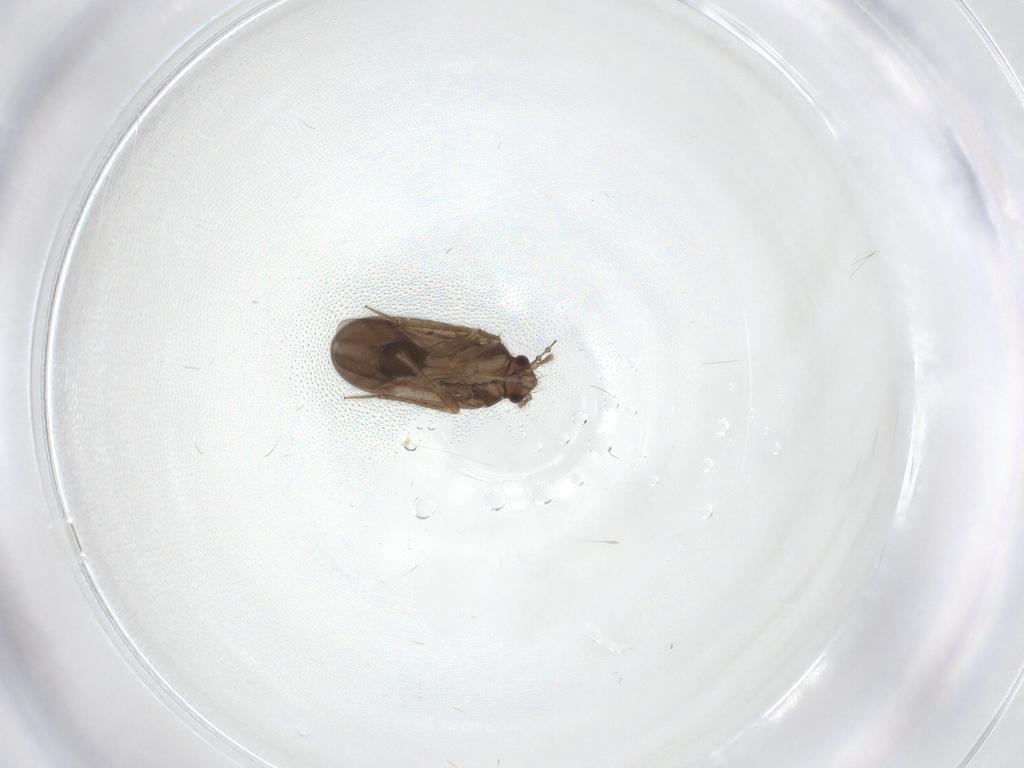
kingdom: Animalia
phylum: Arthropoda
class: Insecta
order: Hemiptera
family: Ceratocombidae
